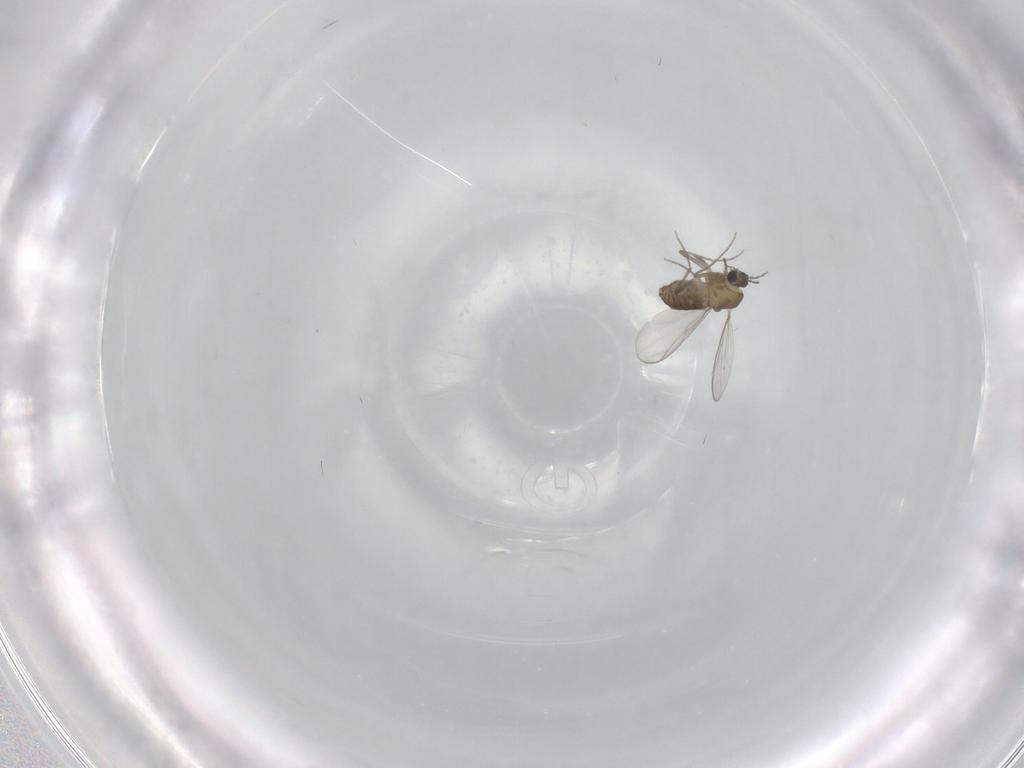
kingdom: Animalia
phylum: Arthropoda
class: Insecta
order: Diptera
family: Chironomidae
